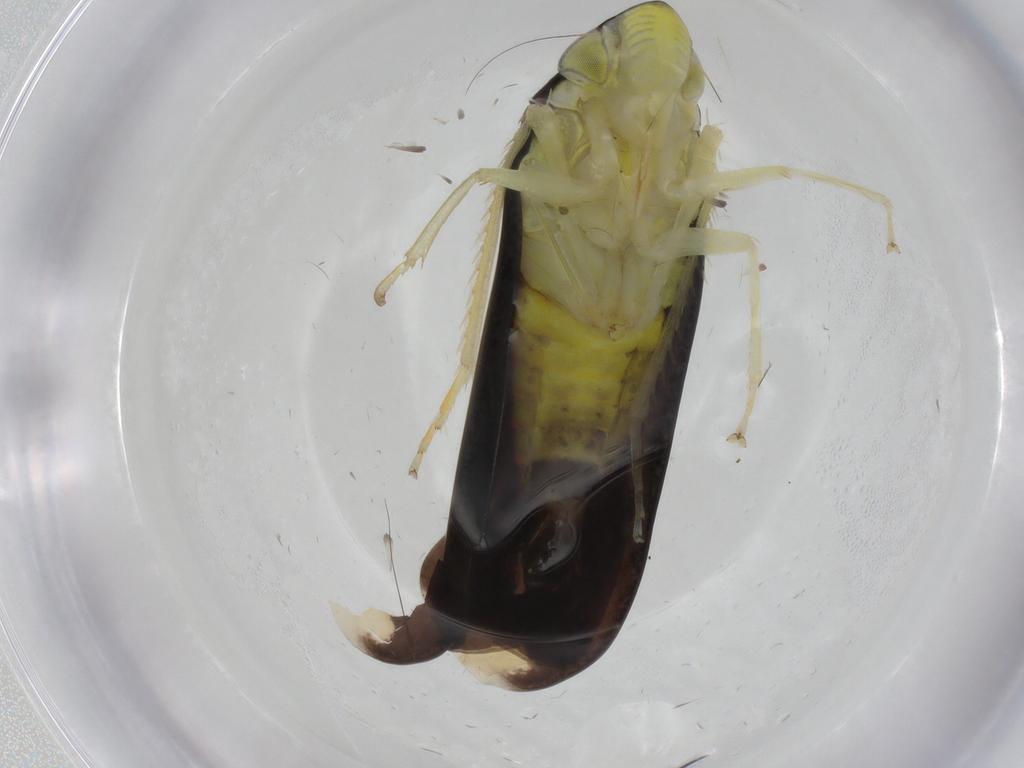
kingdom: Animalia
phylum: Arthropoda
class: Insecta
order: Hemiptera
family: Cicadellidae
